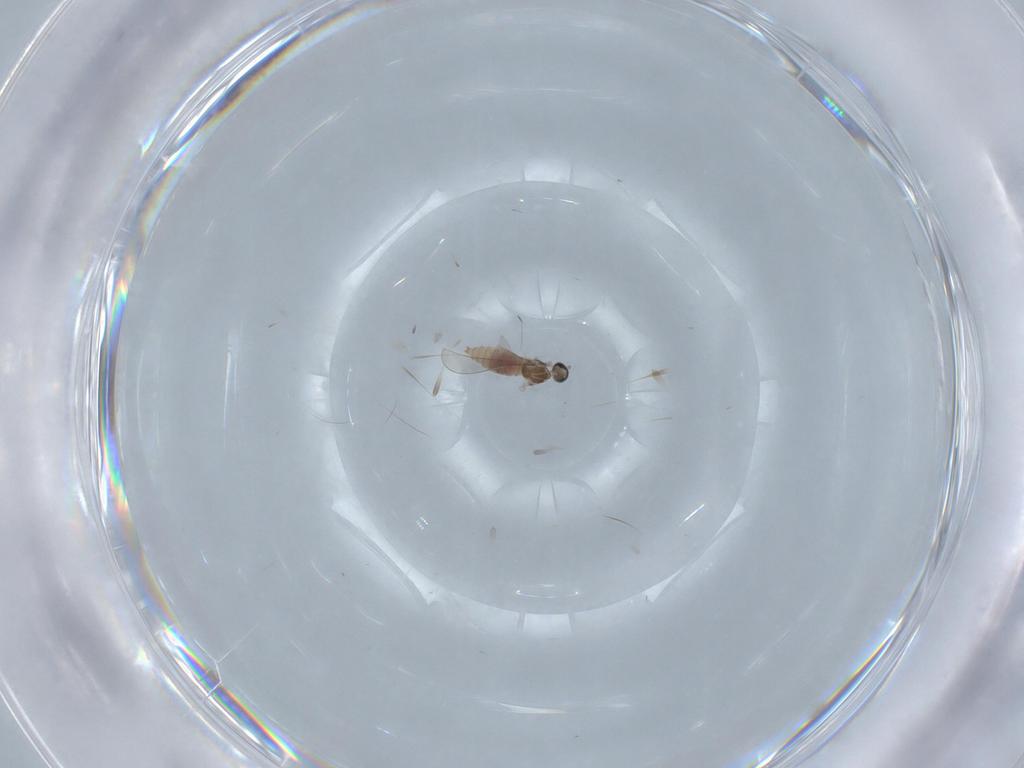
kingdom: Animalia
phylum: Arthropoda
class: Insecta
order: Diptera
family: Cecidomyiidae
